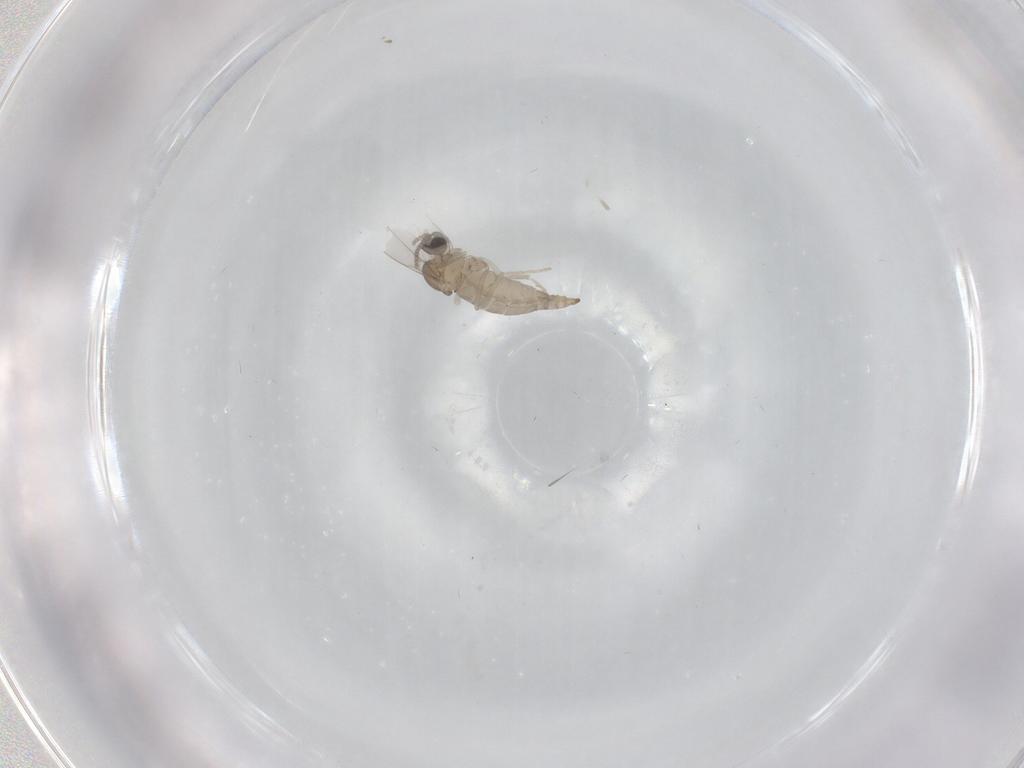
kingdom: Animalia
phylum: Arthropoda
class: Insecta
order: Diptera
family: Cecidomyiidae
